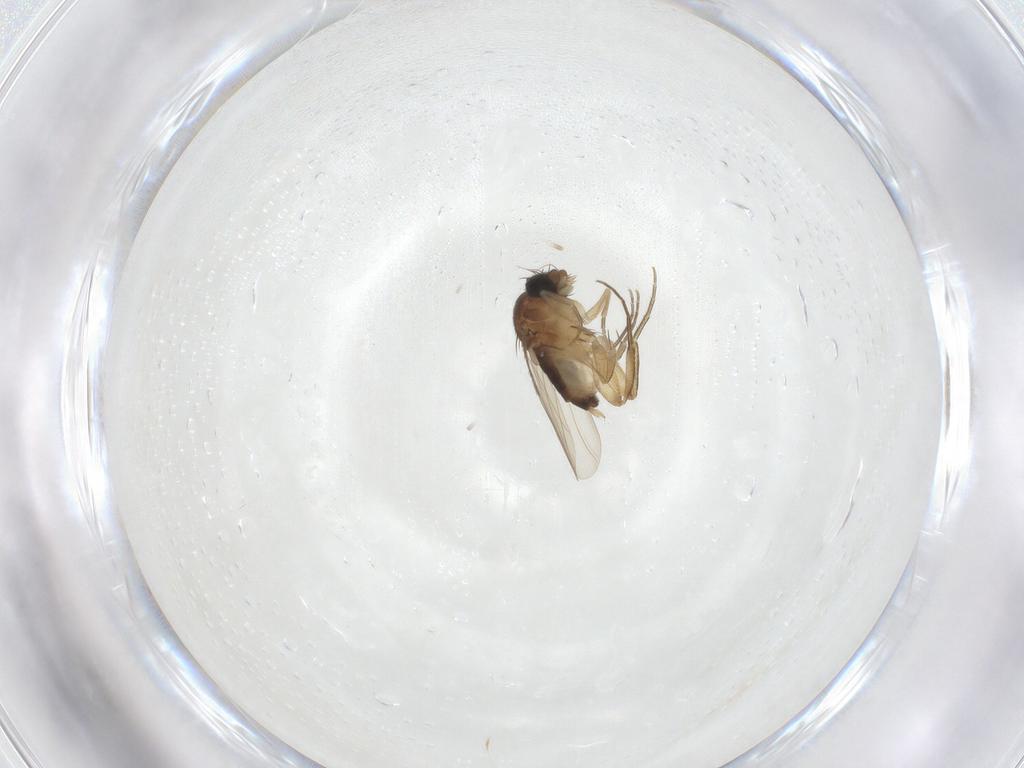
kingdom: Animalia
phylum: Arthropoda
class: Insecta
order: Diptera
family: Phoridae
